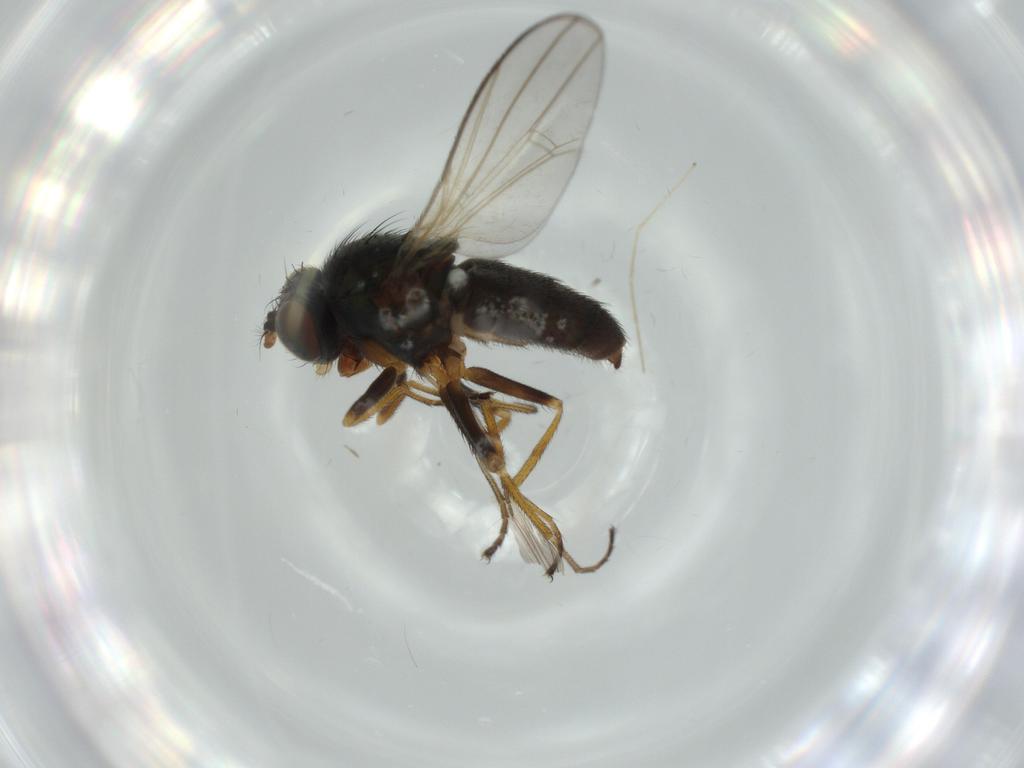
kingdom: Animalia
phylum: Arthropoda
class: Insecta
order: Diptera
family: Ephydridae
